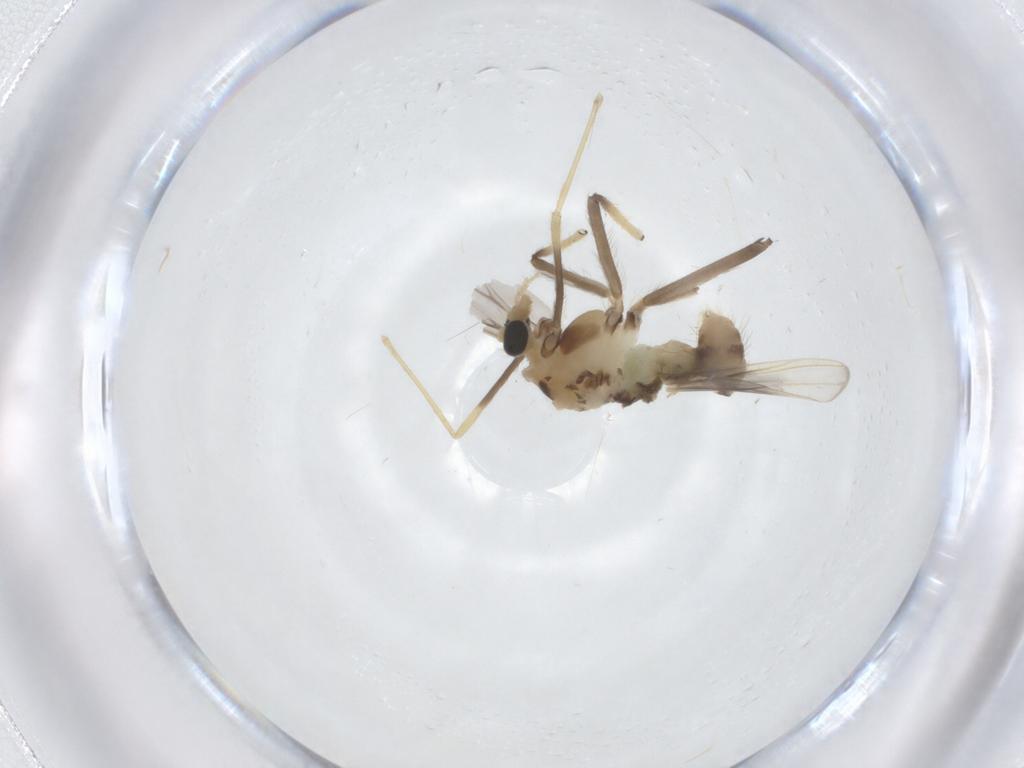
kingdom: Animalia
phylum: Arthropoda
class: Insecta
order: Diptera
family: Chironomidae
